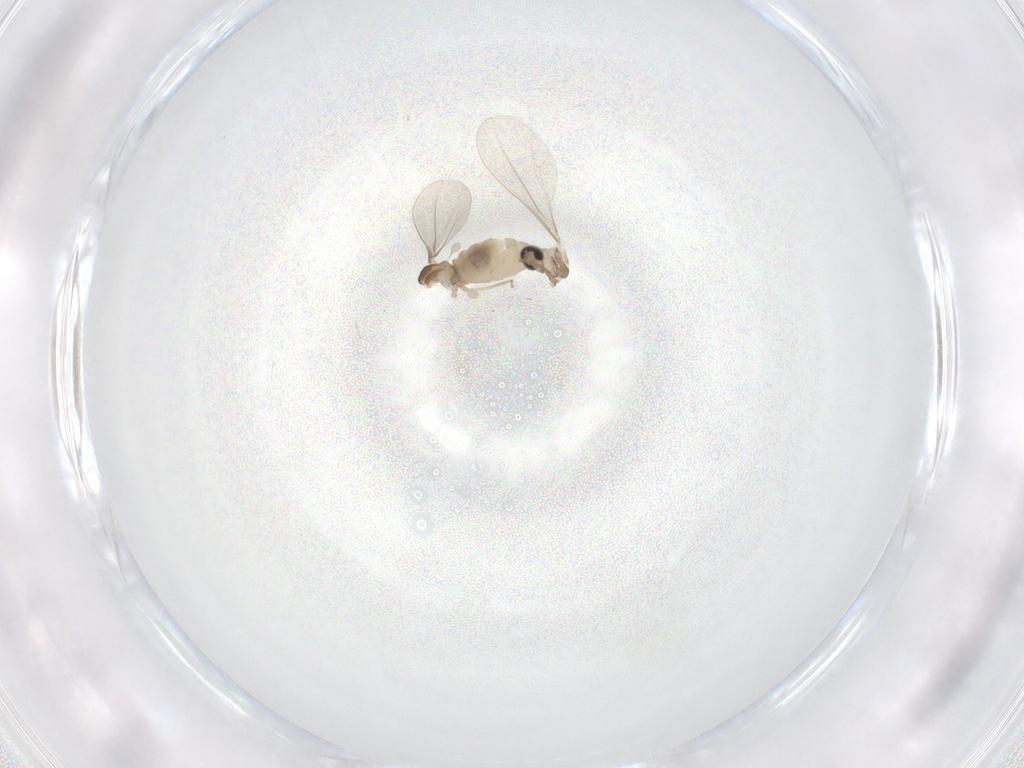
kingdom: Animalia
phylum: Arthropoda
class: Insecta
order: Diptera
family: Cecidomyiidae
